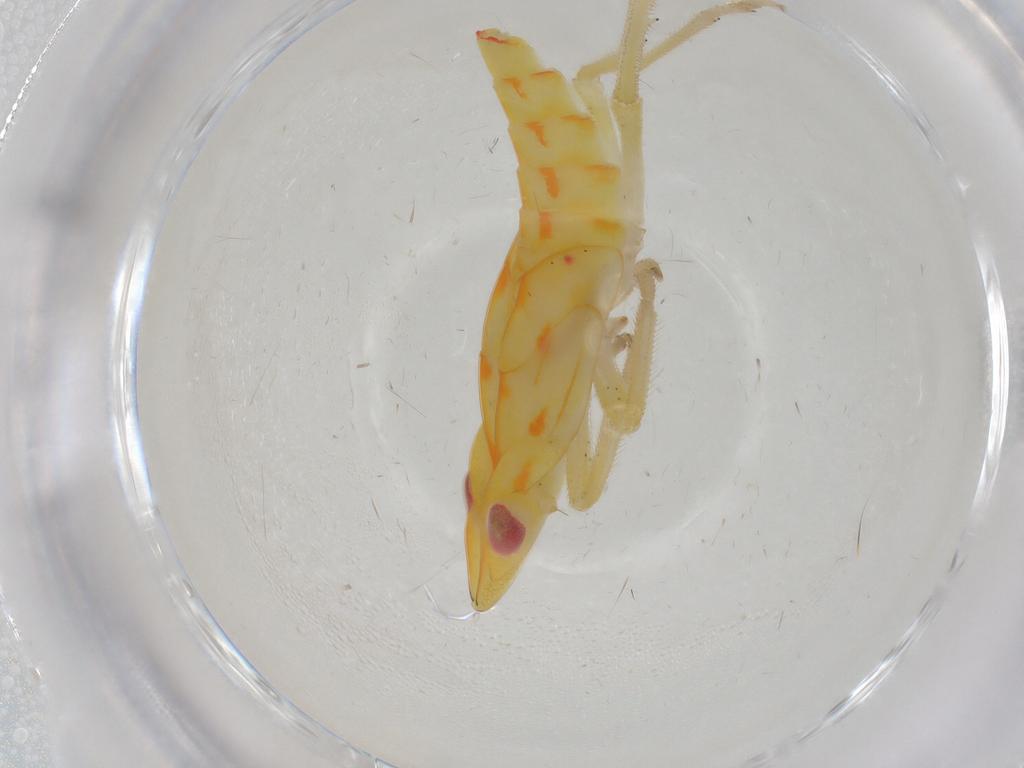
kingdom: Animalia
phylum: Arthropoda
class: Insecta
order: Hemiptera
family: Tropiduchidae
